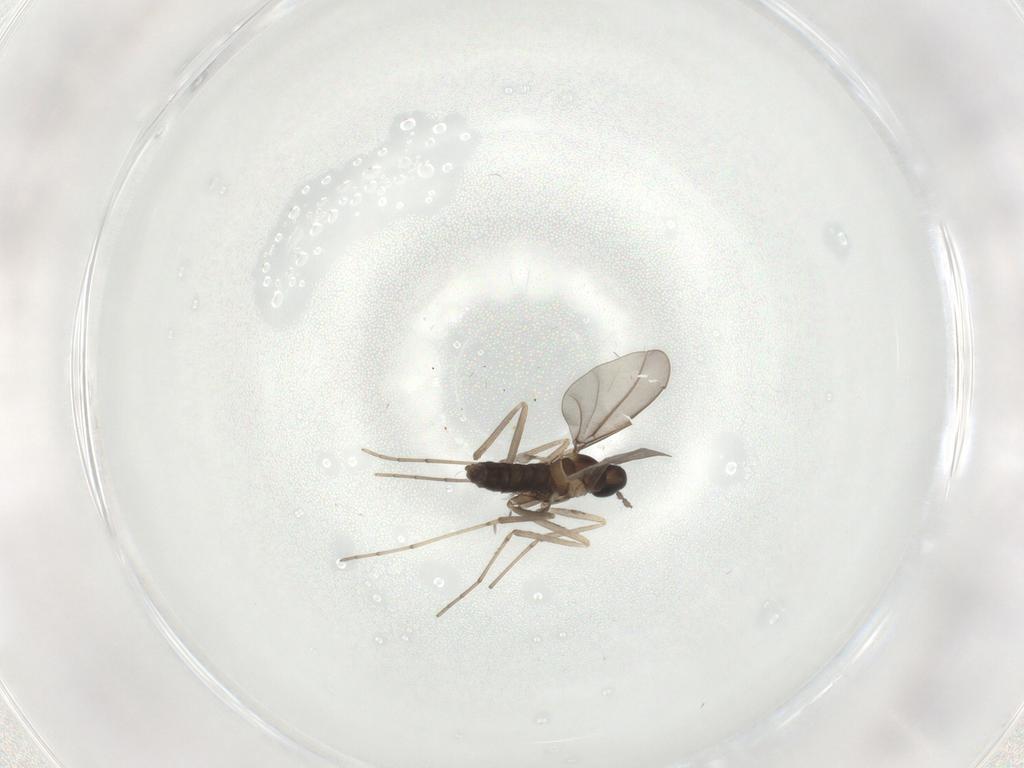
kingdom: Animalia
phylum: Arthropoda
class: Insecta
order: Diptera
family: Cecidomyiidae
